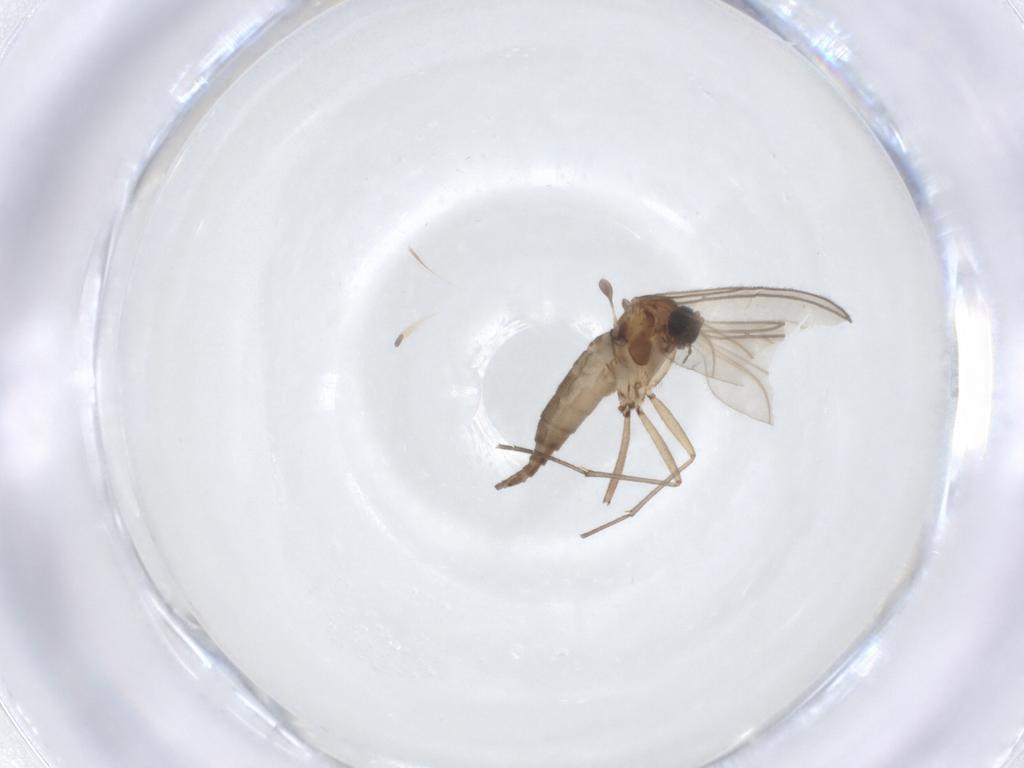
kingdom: Animalia
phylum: Arthropoda
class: Insecta
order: Diptera
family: Sciaridae
